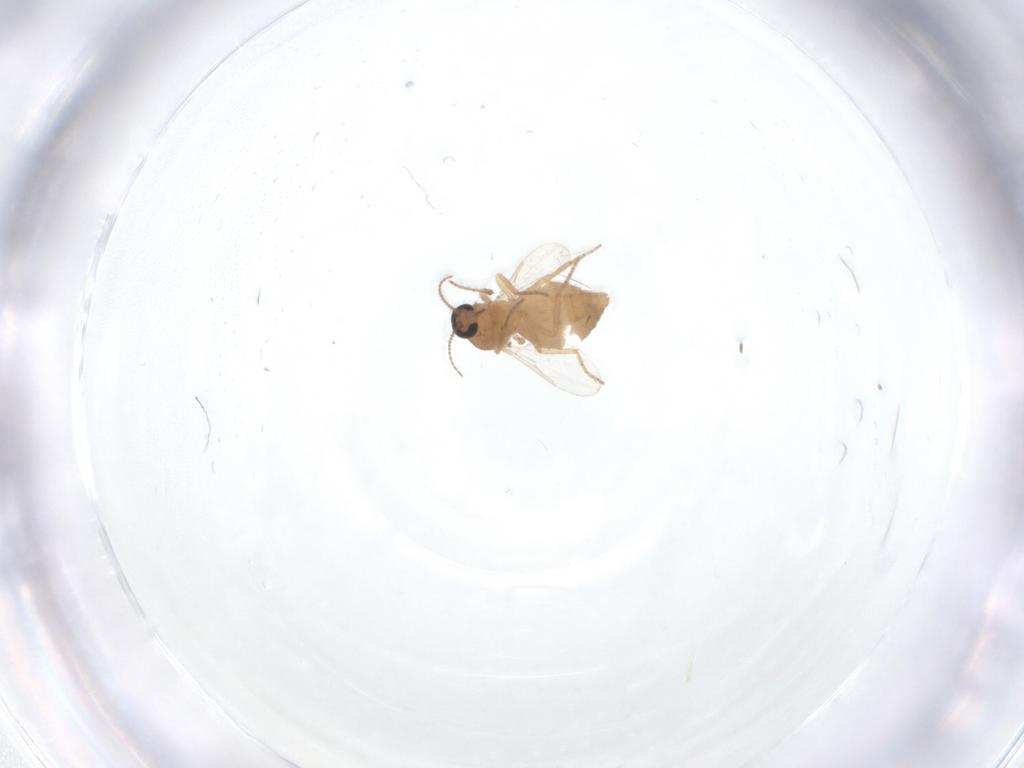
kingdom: Animalia
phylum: Arthropoda
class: Insecta
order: Diptera
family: Ceratopogonidae
